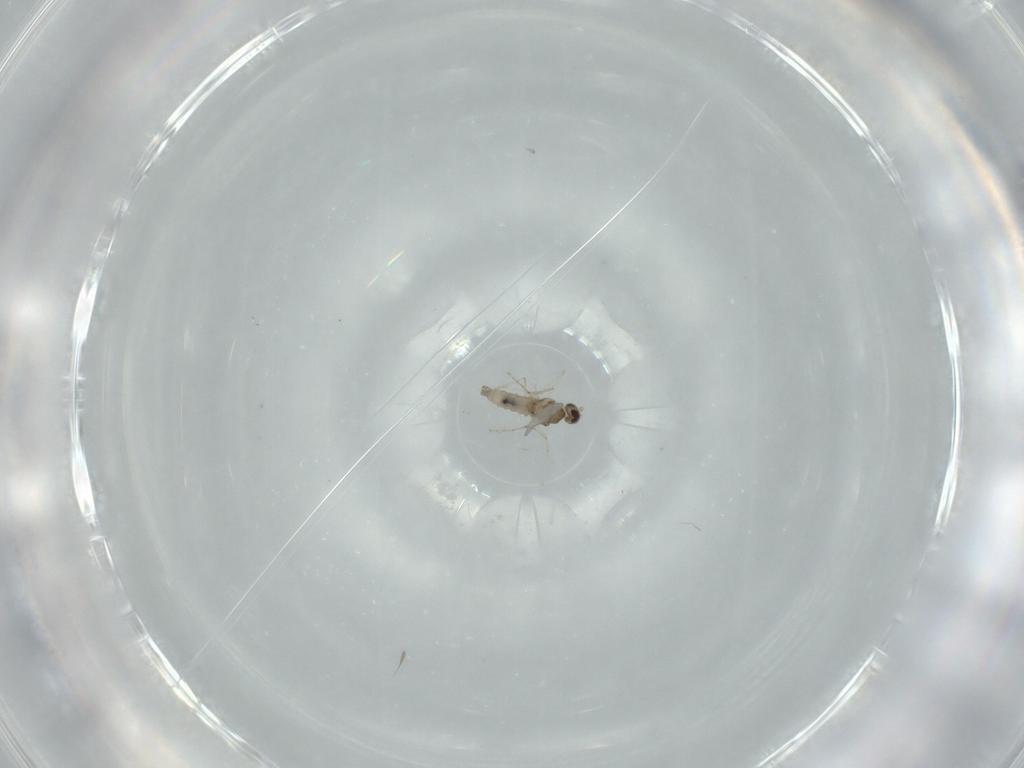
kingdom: Animalia
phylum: Arthropoda
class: Insecta
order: Diptera
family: Cecidomyiidae
